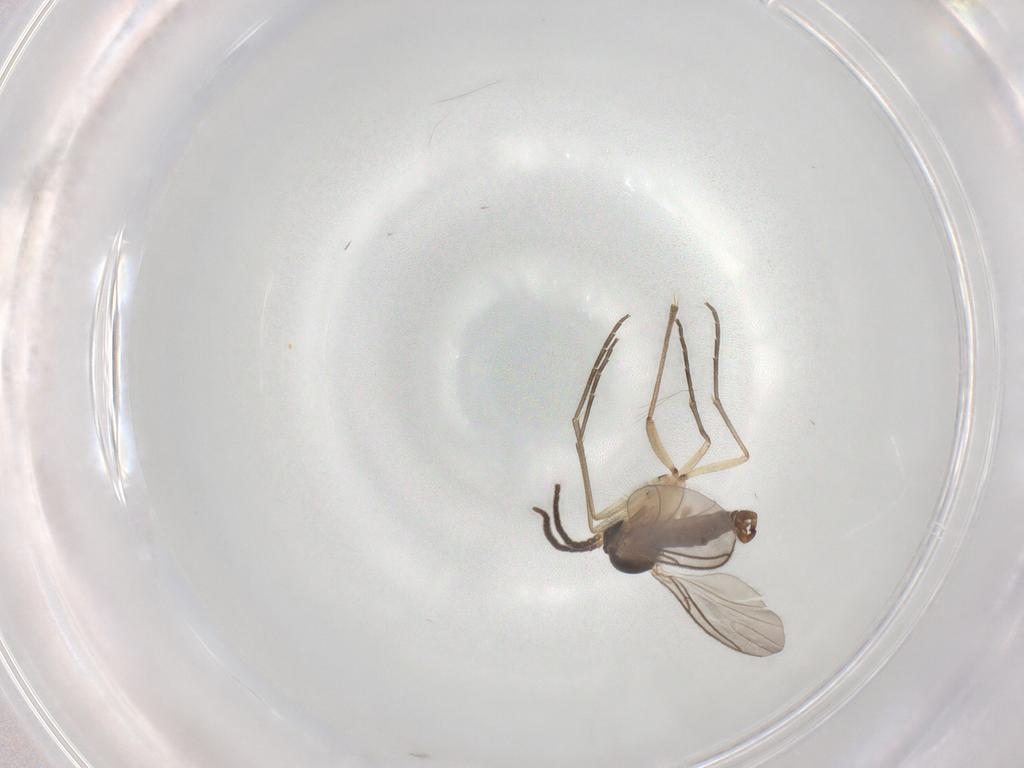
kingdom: Animalia
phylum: Arthropoda
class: Insecta
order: Diptera
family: Sciaridae
